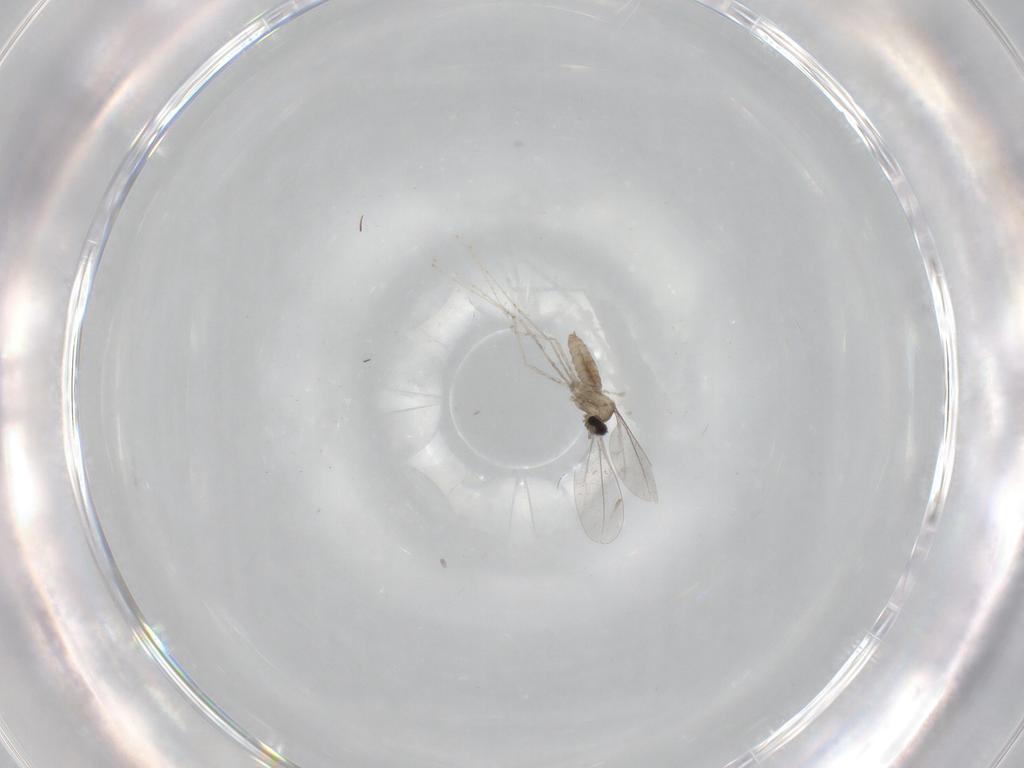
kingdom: Animalia
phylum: Arthropoda
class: Insecta
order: Diptera
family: Cecidomyiidae
